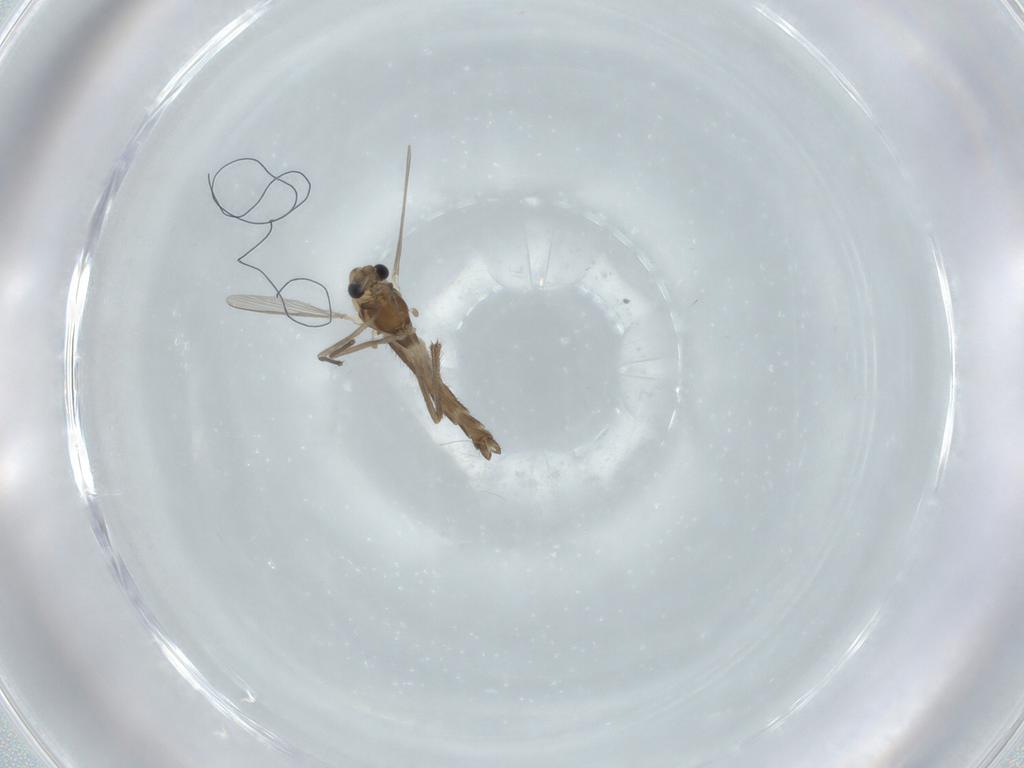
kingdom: Animalia
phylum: Arthropoda
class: Insecta
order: Diptera
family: Chironomidae
